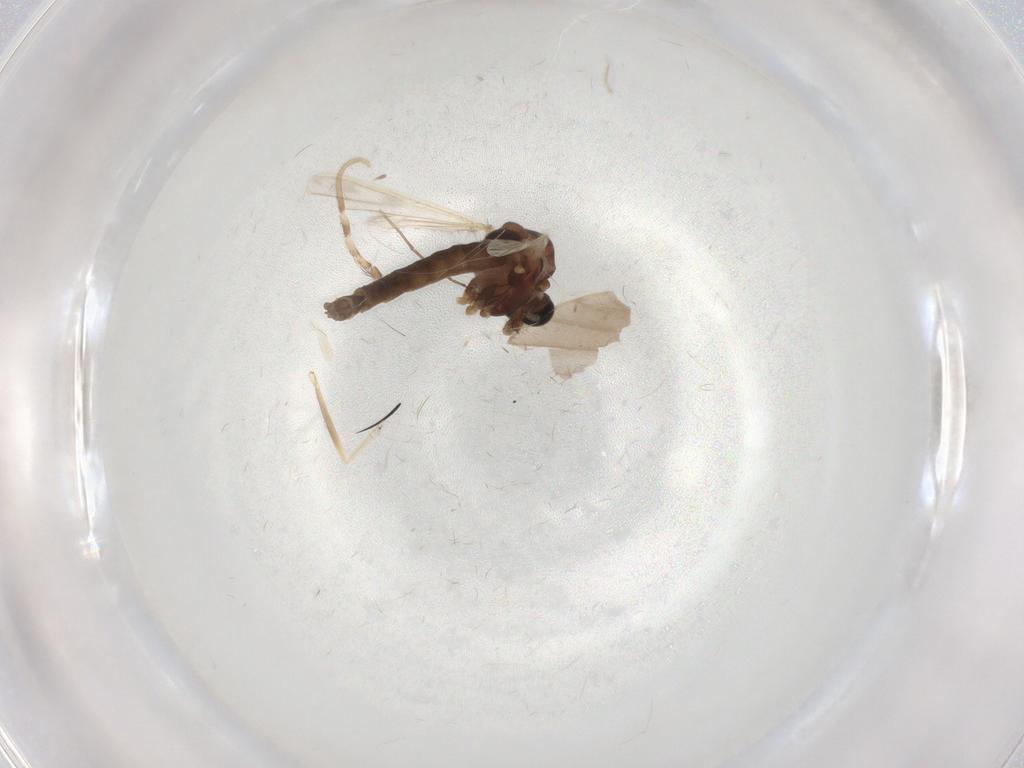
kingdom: Animalia
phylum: Arthropoda
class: Insecta
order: Diptera
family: Chironomidae
